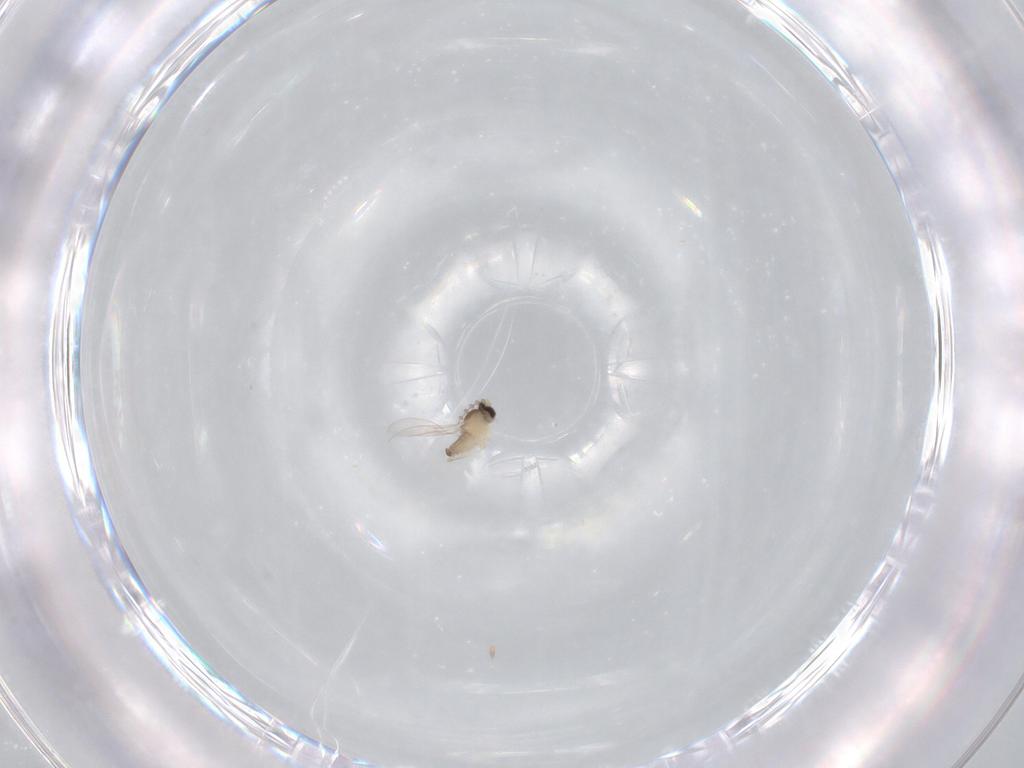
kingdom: Animalia
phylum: Arthropoda
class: Insecta
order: Diptera
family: Cecidomyiidae
